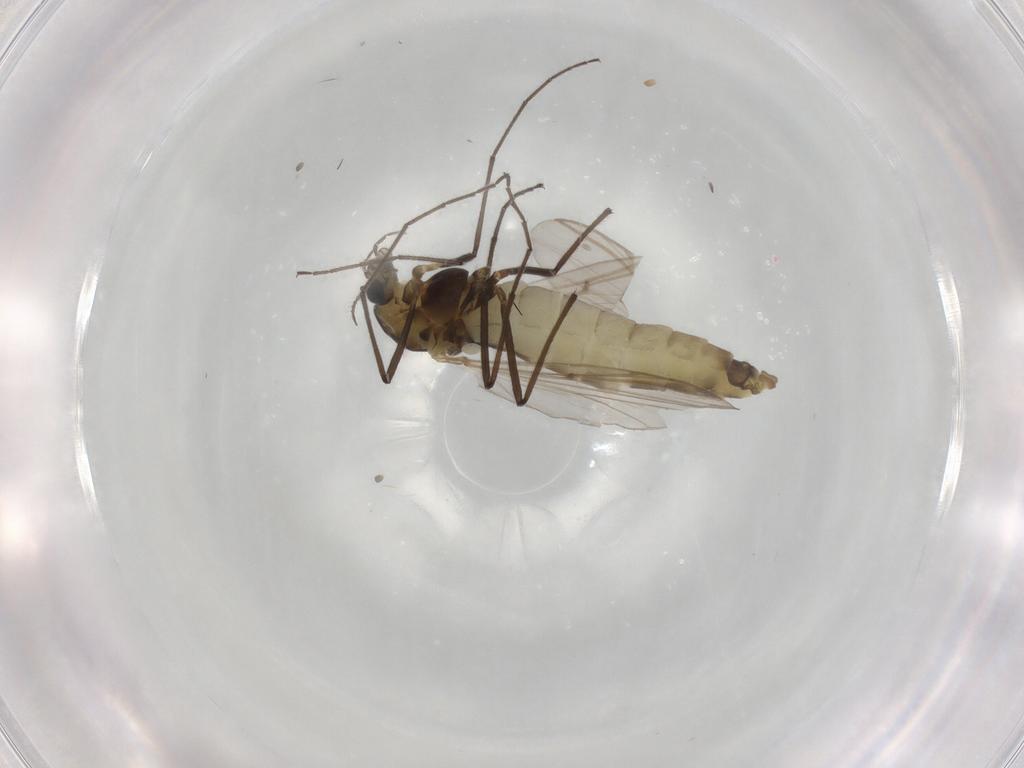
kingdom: Animalia
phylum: Arthropoda
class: Insecta
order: Diptera
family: Chironomidae
